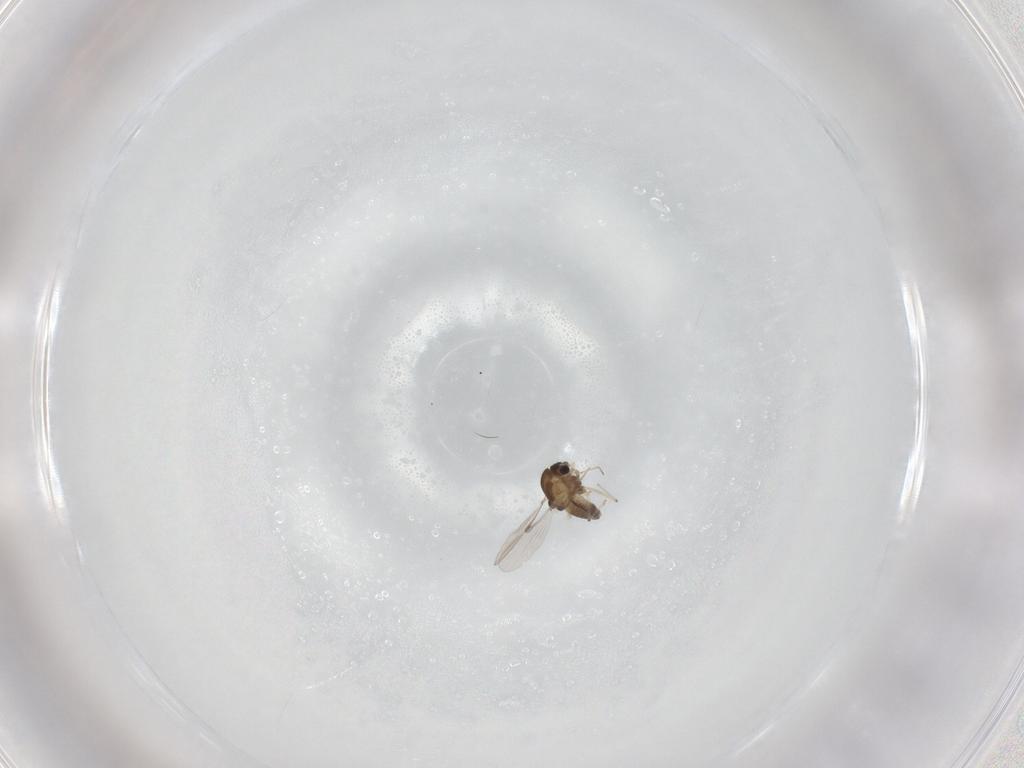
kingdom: Animalia
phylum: Arthropoda
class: Insecta
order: Diptera
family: Chironomidae
